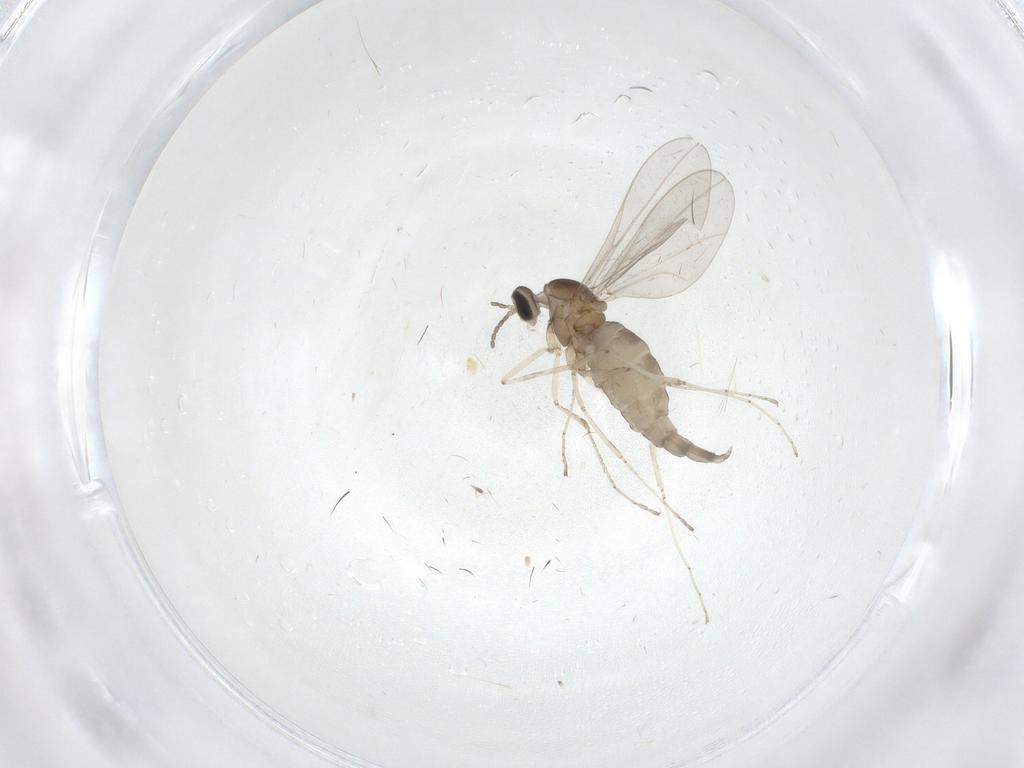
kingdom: Animalia
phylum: Arthropoda
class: Insecta
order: Diptera
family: Cecidomyiidae
